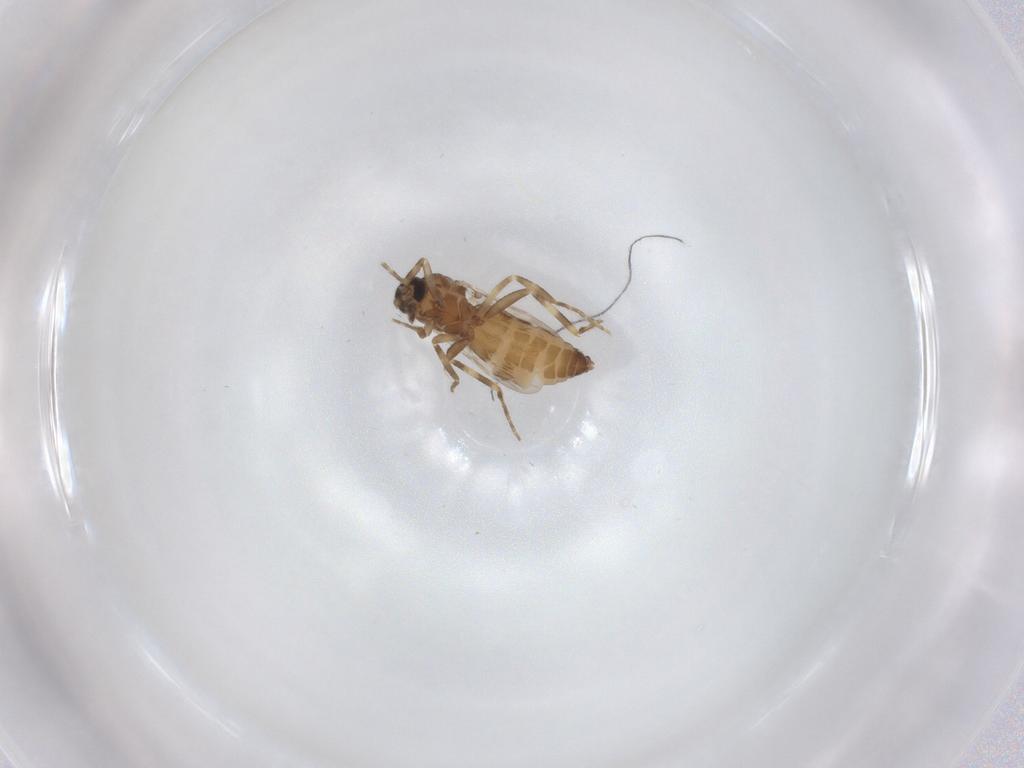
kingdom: Animalia
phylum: Arthropoda
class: Insecta
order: Diptera
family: Ceratopogonidae
